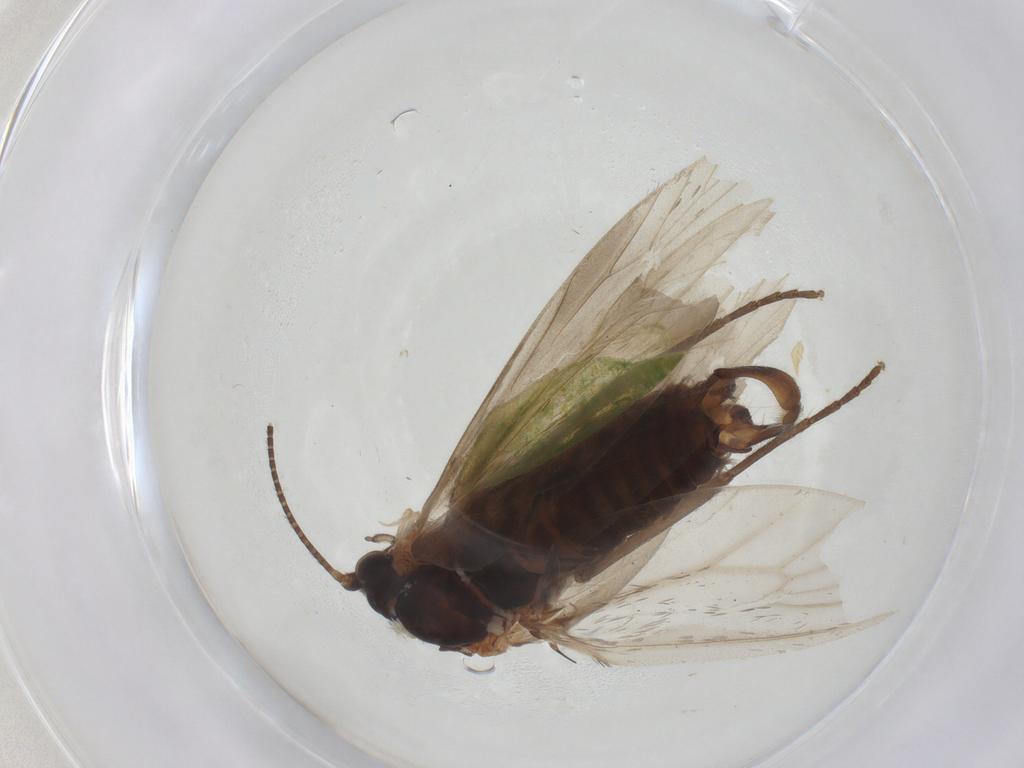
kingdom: Animalia
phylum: Arthropoda
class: Insecta
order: Lepidoptera
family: Prodoxidae
